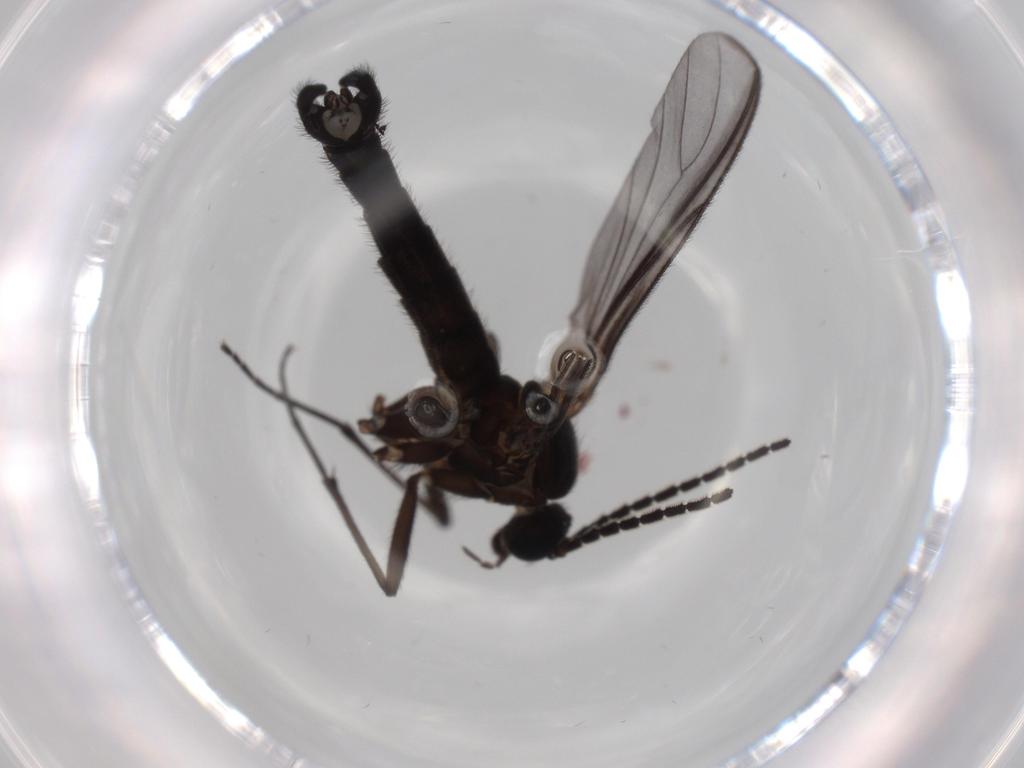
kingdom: Animalia
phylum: Arthropoda
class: Insecta
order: Diptera
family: Sciaridae
